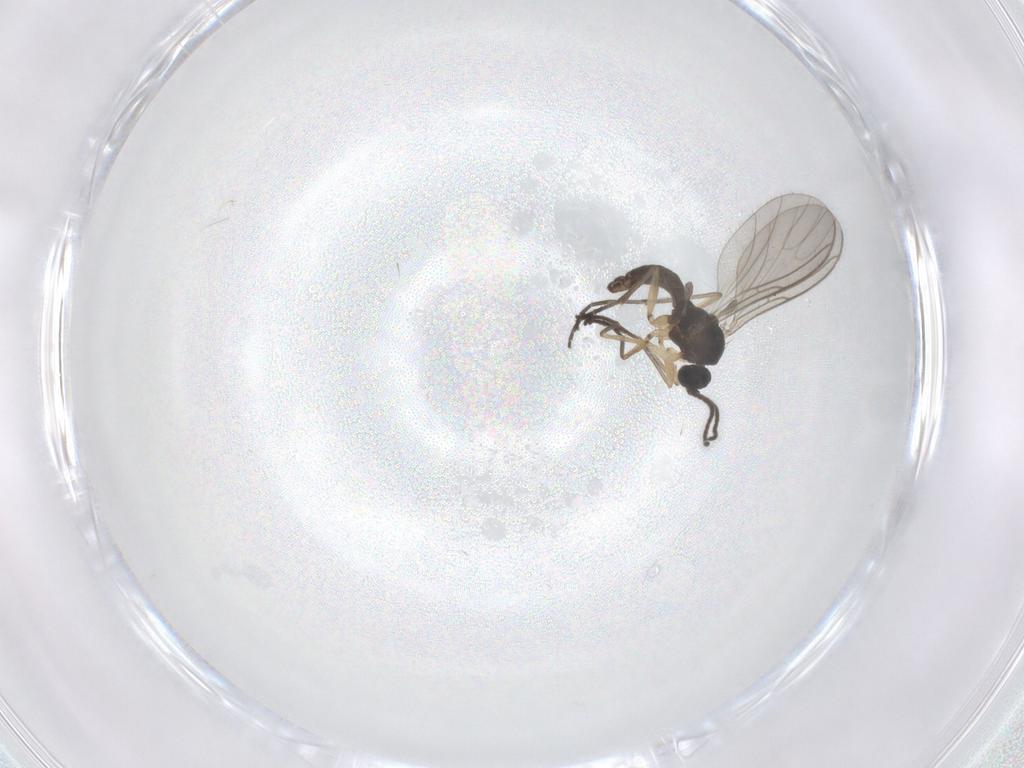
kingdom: Animalia
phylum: Arthropoda
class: Insecta
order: Diptera
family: Sciaridae
